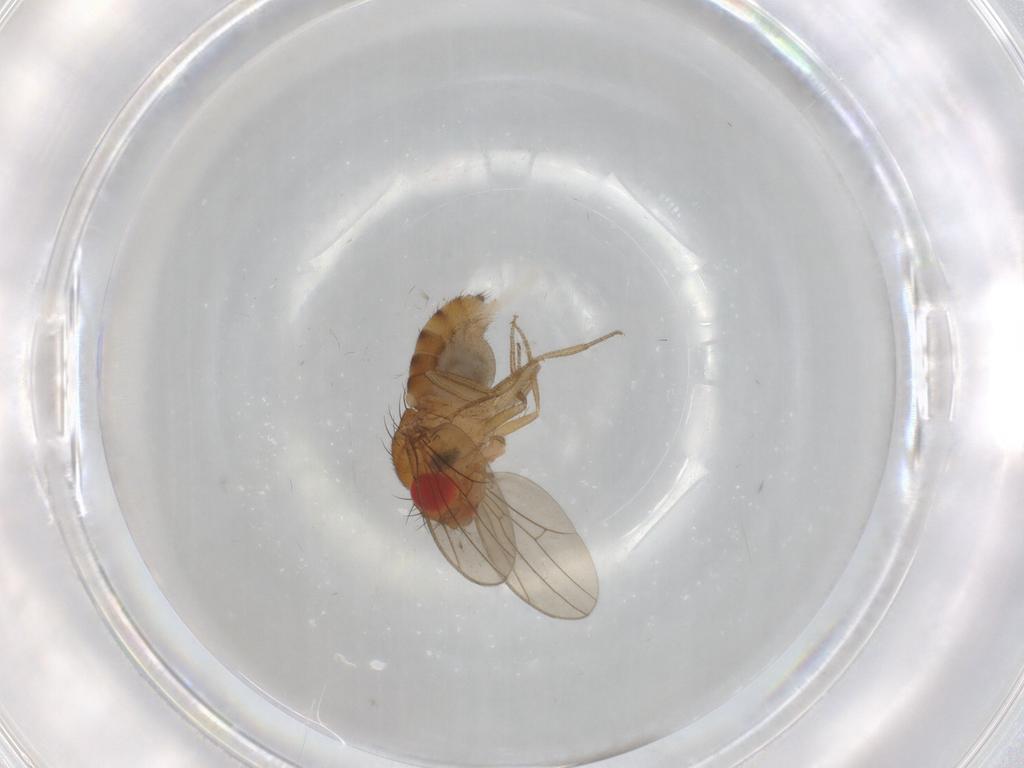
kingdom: Animalia
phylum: Arthropoda
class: Insecta
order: Diptera
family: Drosophilidae
